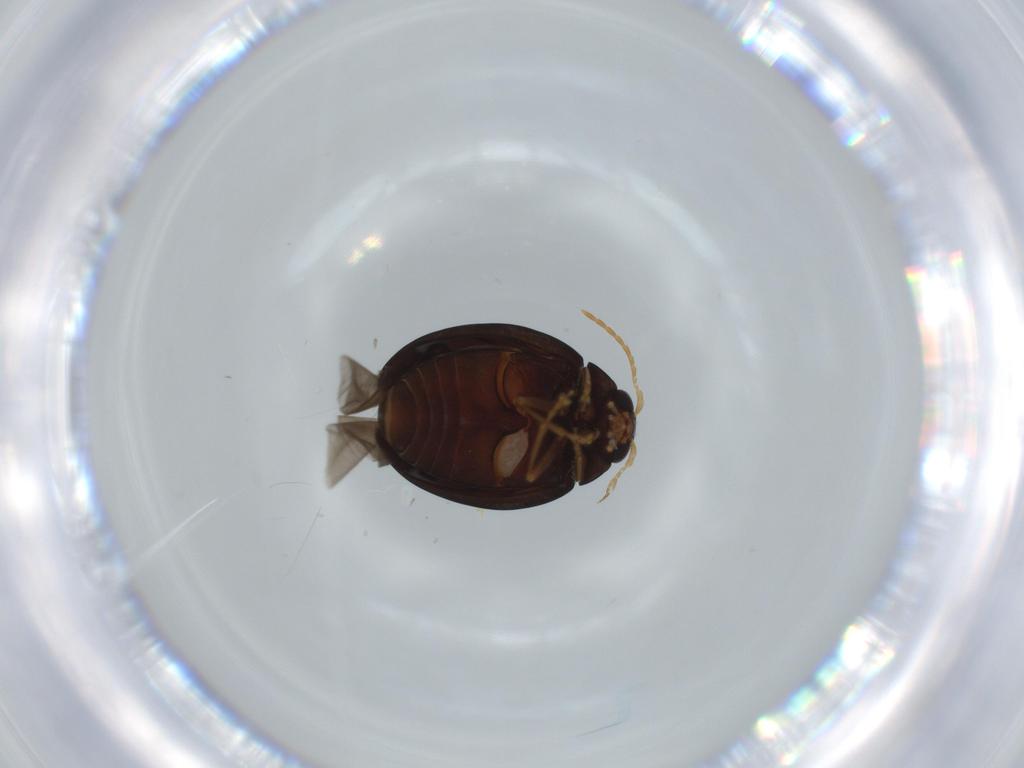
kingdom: Animalia
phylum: Arthropoda
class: Insecta
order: Coleoptera
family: Chrysomelidae
